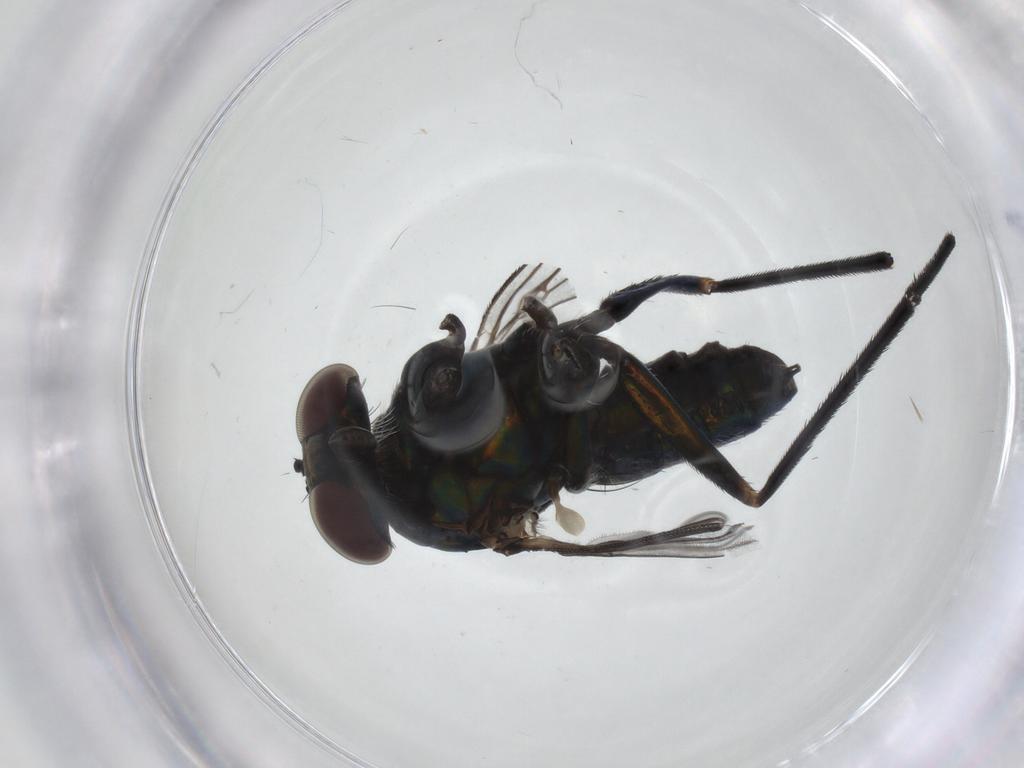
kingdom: Animalia
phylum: Arthropoda
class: Insecta
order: Diptera
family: Dolichopodidae
